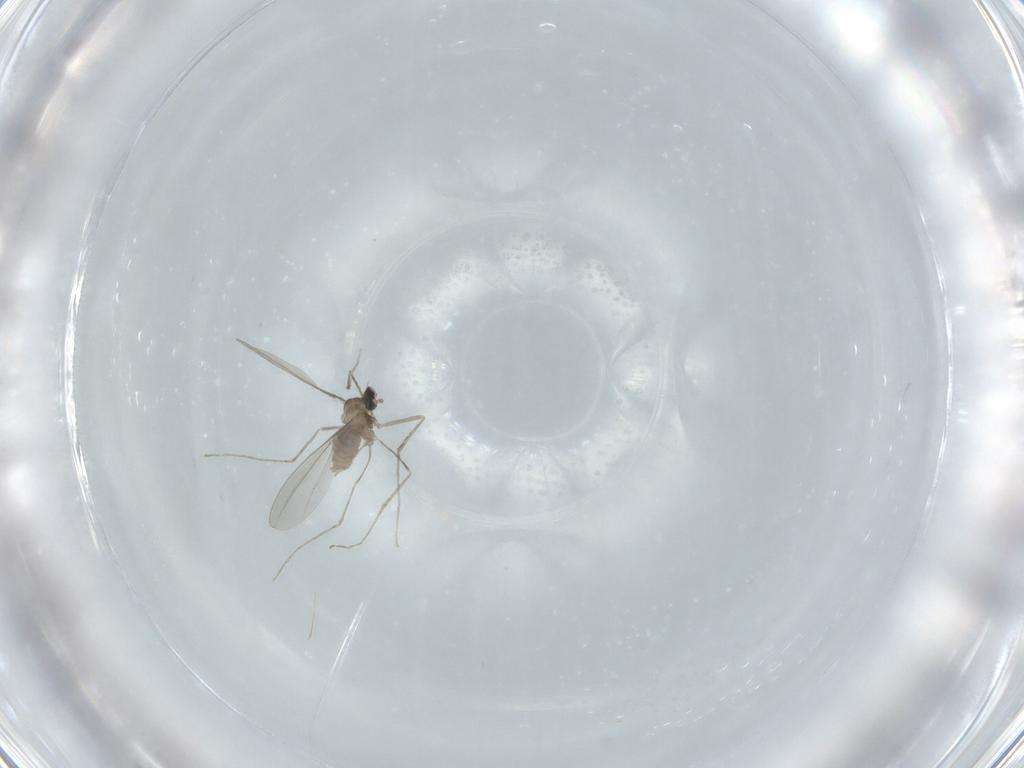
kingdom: Animalia
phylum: Arthropoda
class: Insecta
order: Diptera
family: Cecidomyiidae
